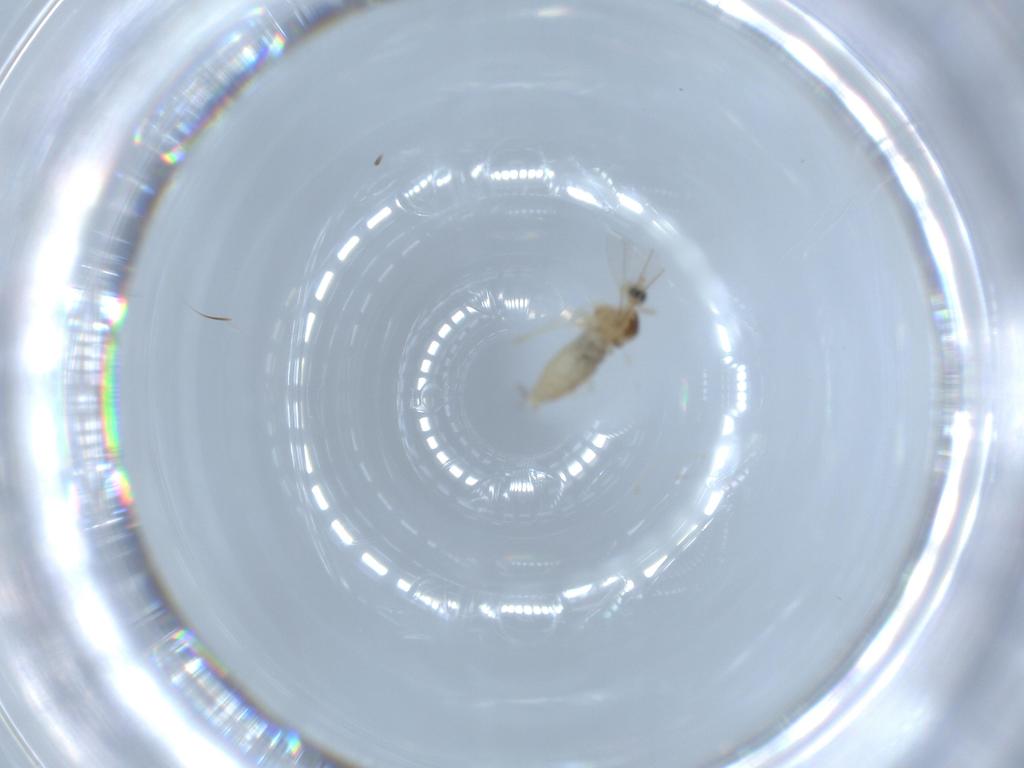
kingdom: Animalia
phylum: Arthropoda
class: Insecta
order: Diptera
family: Cecidomyiidae
